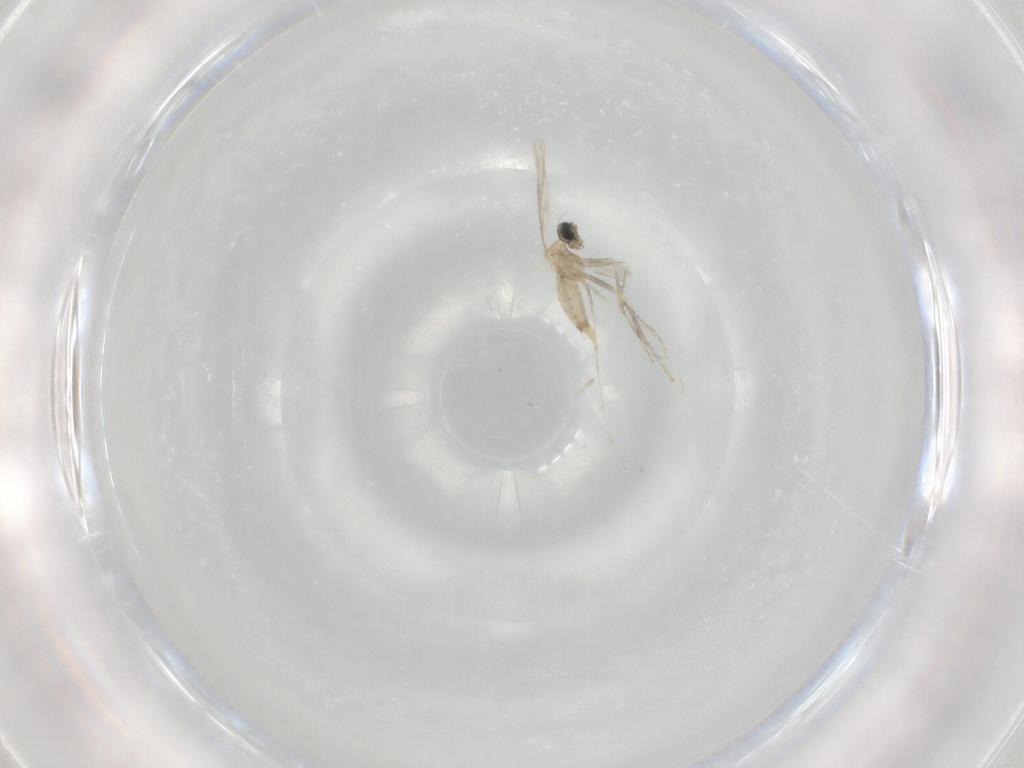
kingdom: Animalia
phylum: Arthropoda
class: Insecta
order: Diptera
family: Cecidomyiidae
